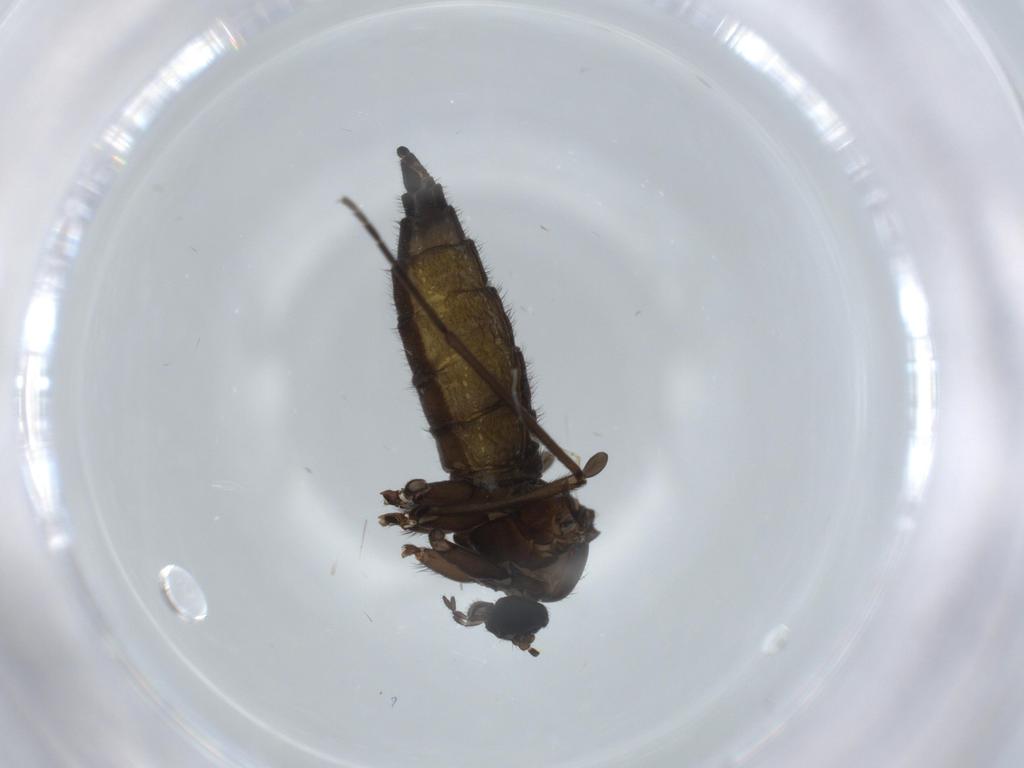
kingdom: Animalia
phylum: Arthropoda
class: Insecta
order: Diptera
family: Sciaridae
